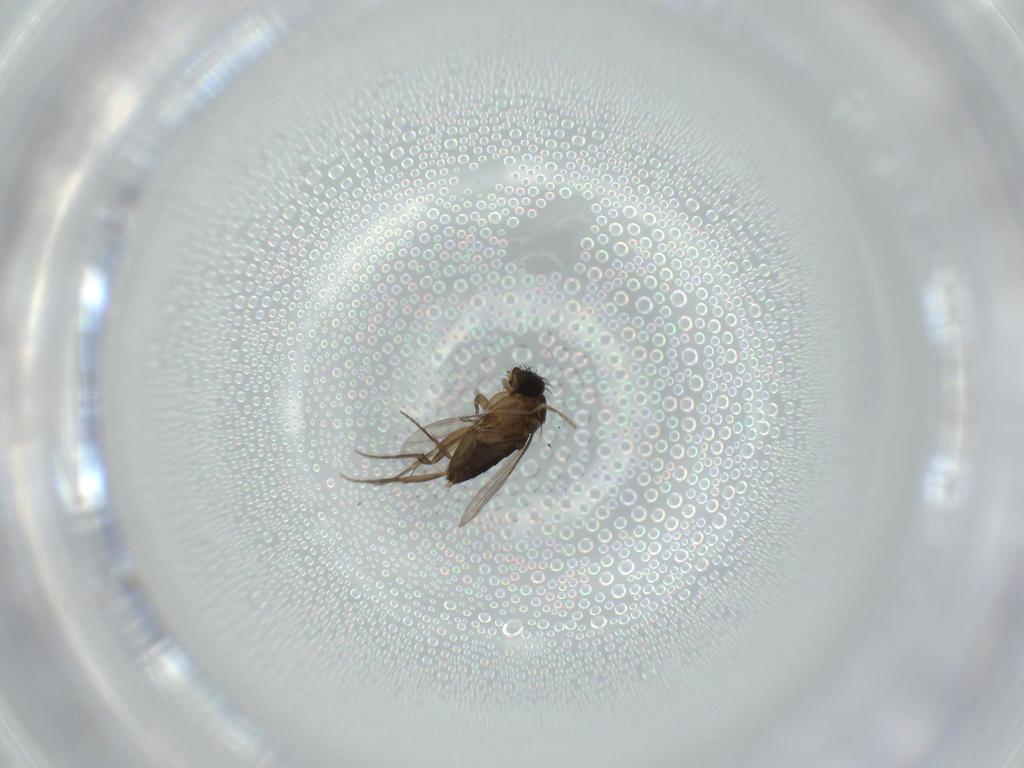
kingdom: Animalia
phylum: Arthropoda
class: Insecta
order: Diptera
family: Phoridae
